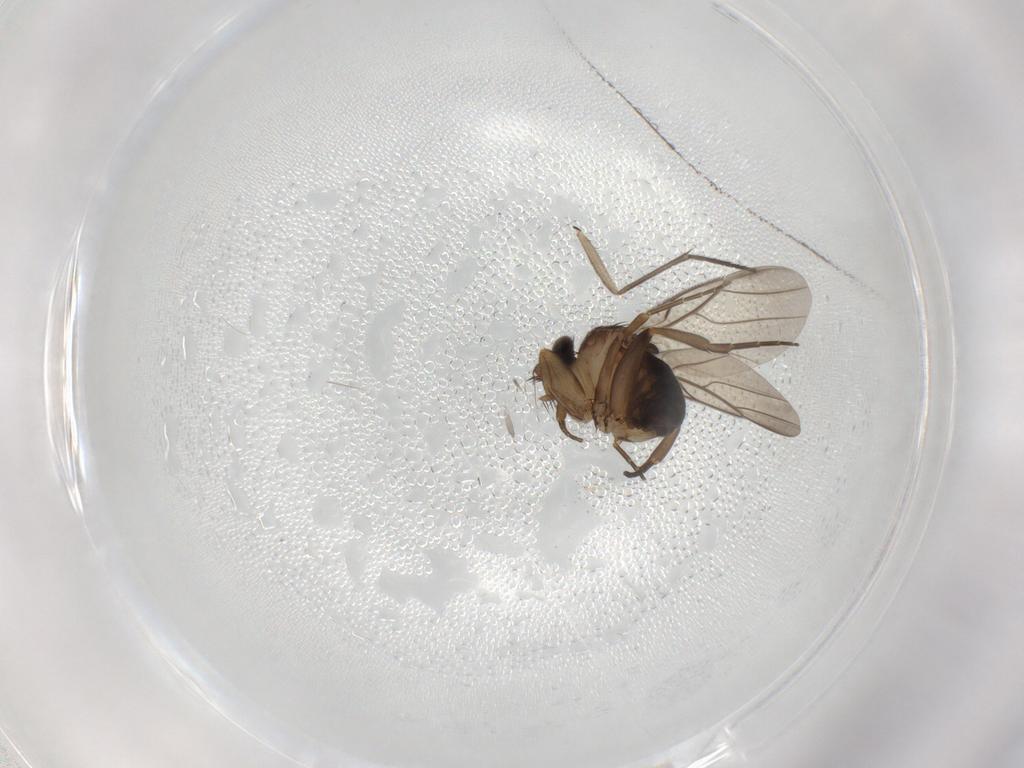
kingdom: Animalia
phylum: Arthropoda
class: Insecta
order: Diptera
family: Phoridae
